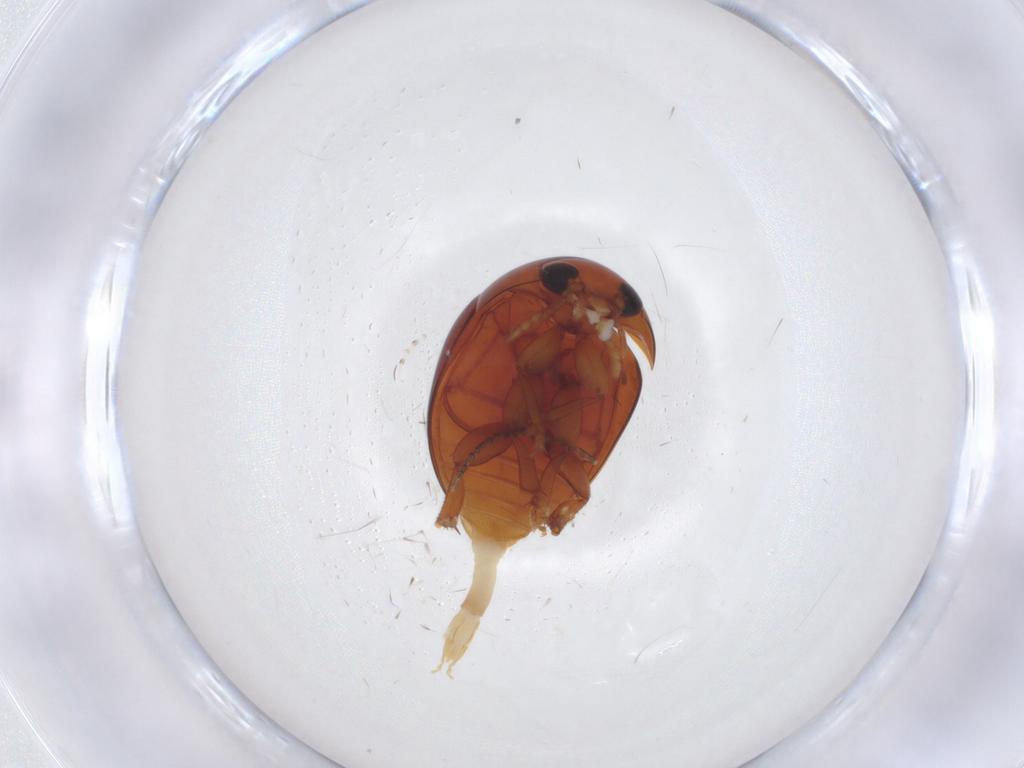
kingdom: Animalia
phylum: Arthropoda
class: Insecta
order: Coleoptera
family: Phalacridae
